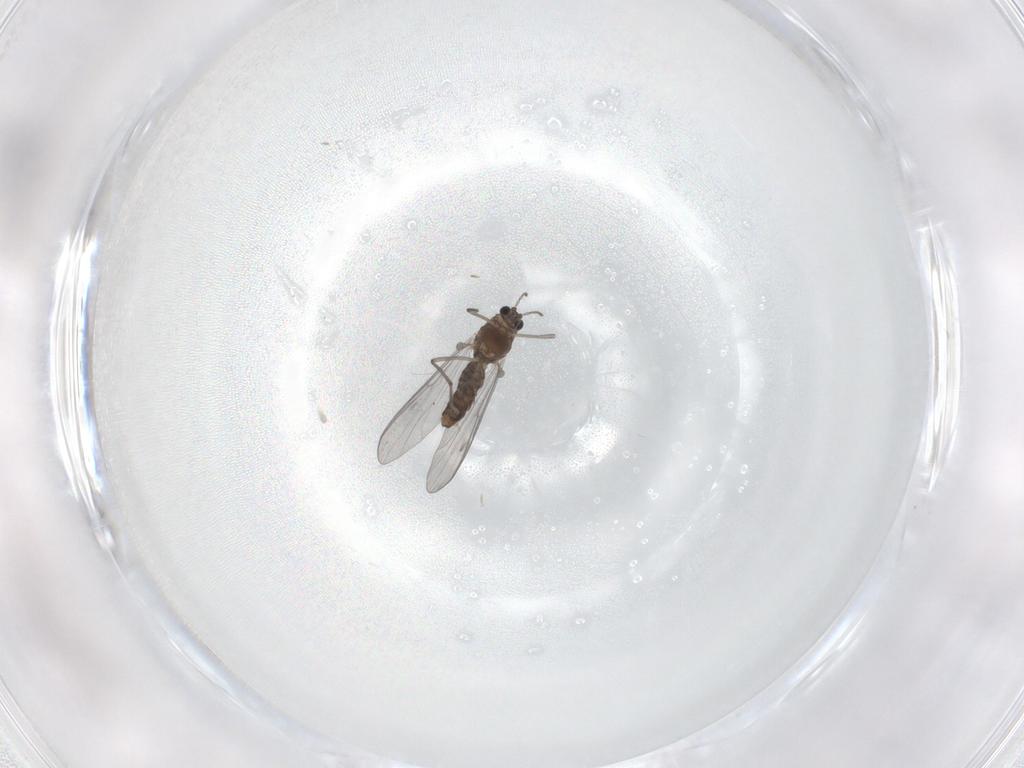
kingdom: Animalia
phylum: Arthropoda
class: Insecta
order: Diptera
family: Chironomidae
